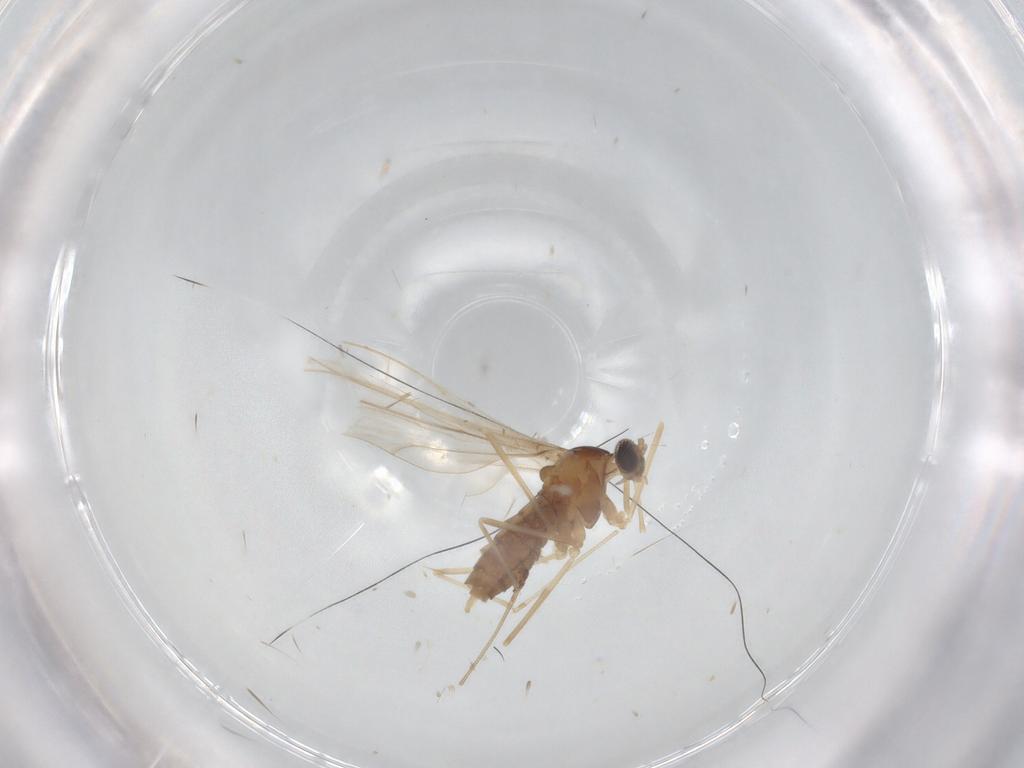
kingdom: Animalia
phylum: Arthropoda
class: Insecta
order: Diptera
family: Cecidomyiidae
